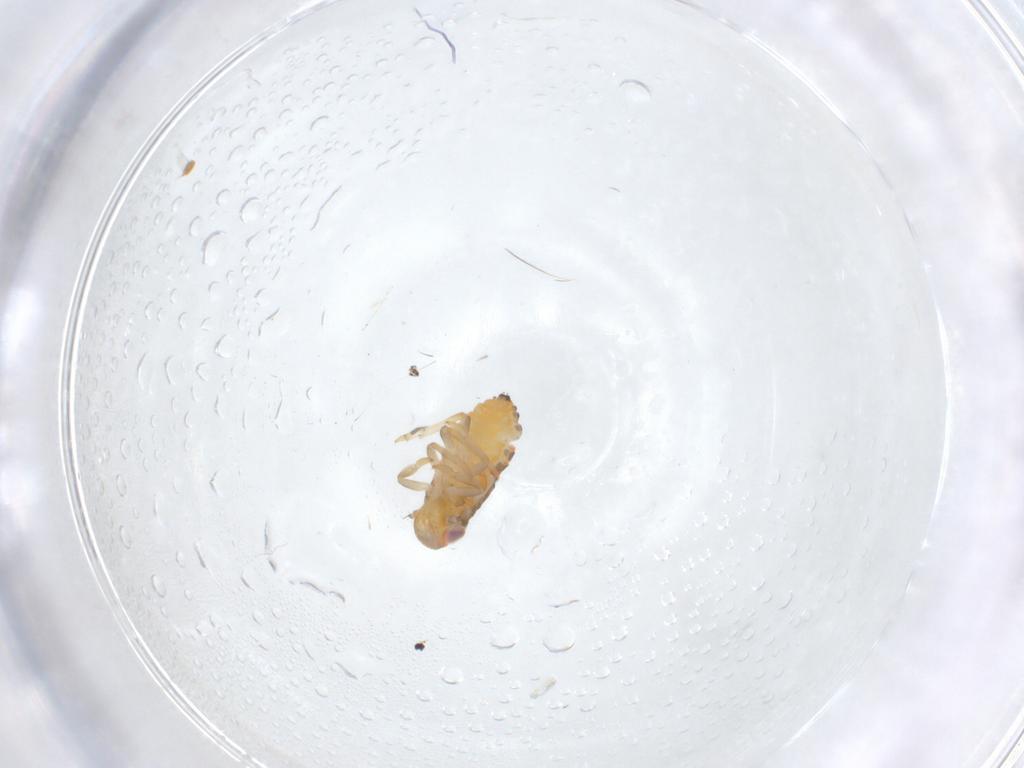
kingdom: Animalia
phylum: Arthropoda
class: Insecta
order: Hemiptera
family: Issidae
